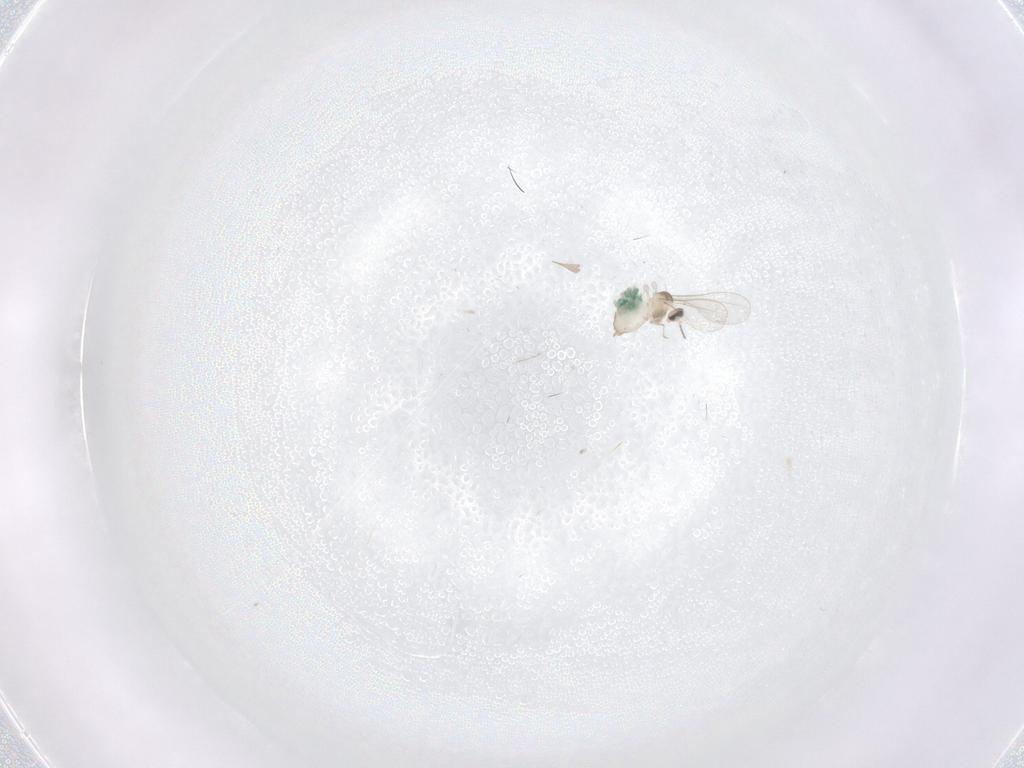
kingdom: Animalia
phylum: Arthropoda
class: Insecta
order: Diptera
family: Cecidomyiidae
